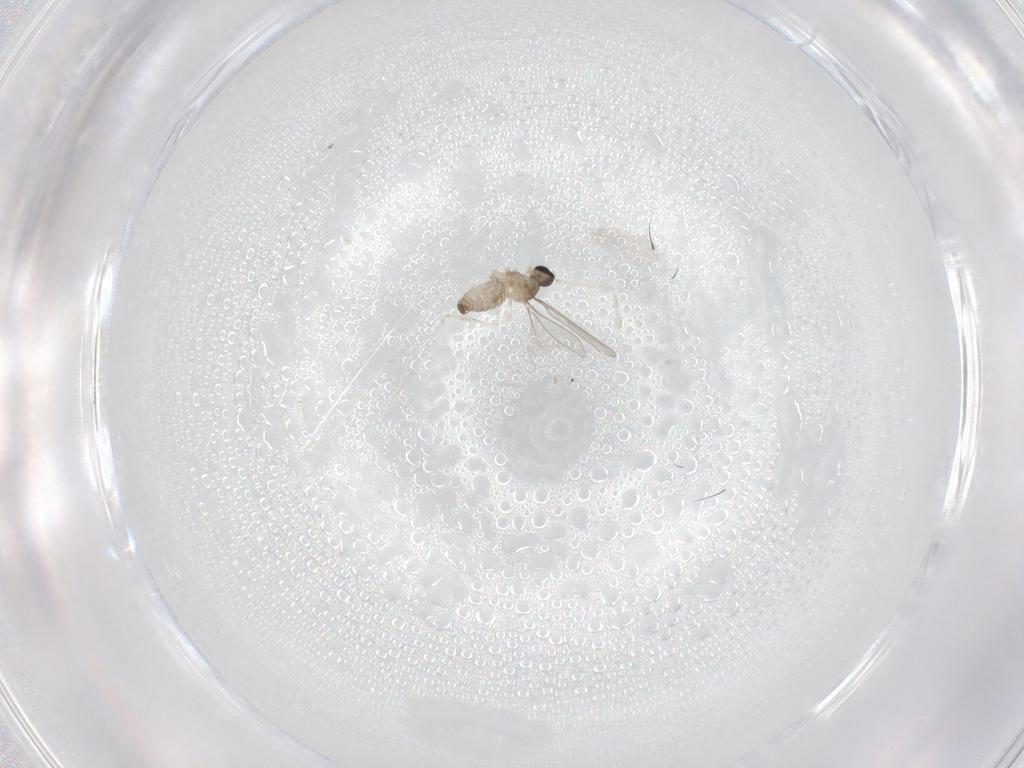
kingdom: Animalia
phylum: Arthropoda
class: Insecta
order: Diptera
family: Cecidomyiidae
